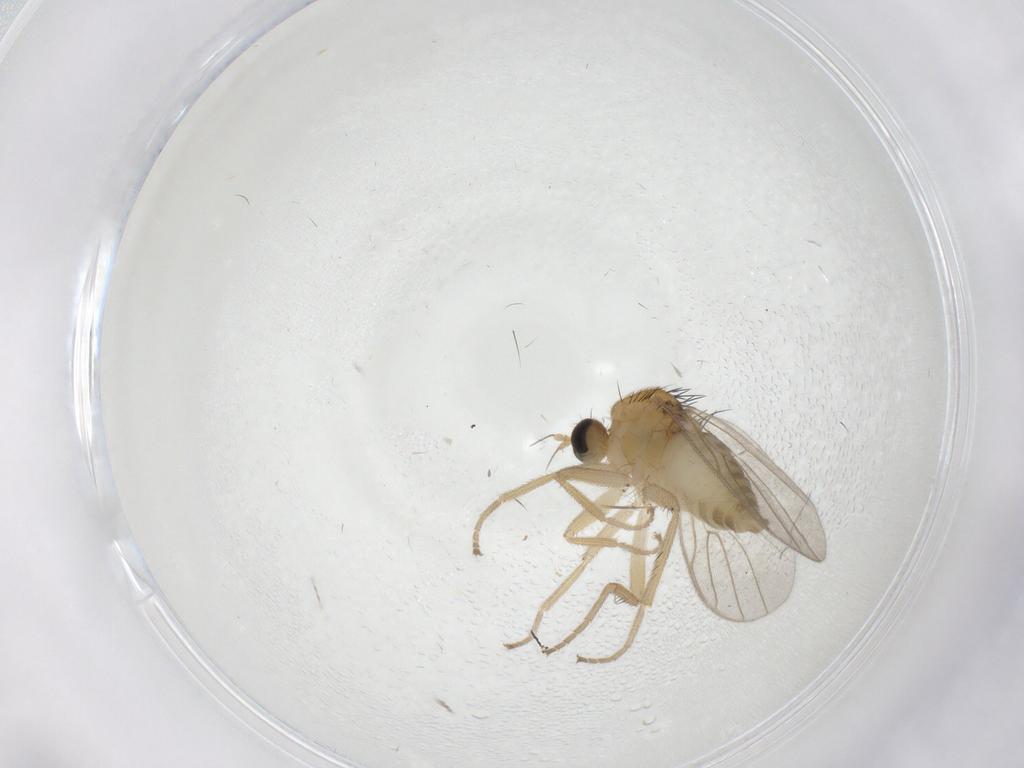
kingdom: Animalia
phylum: Arthropoda
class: Insecta
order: Diptera
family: Hybotidae
